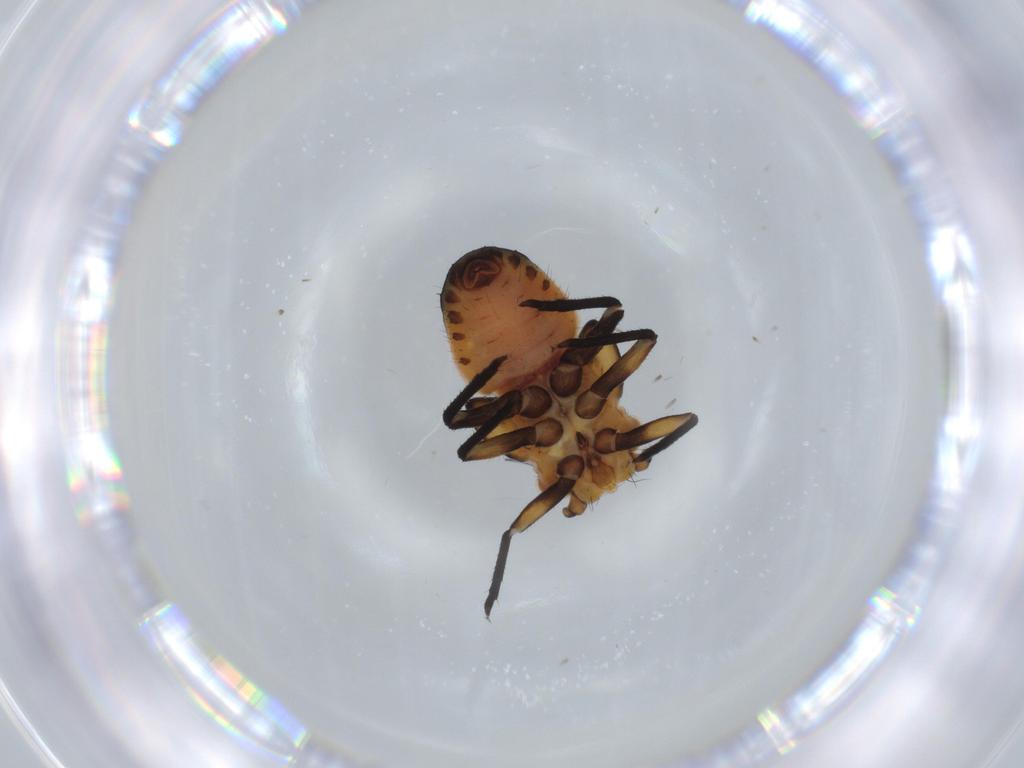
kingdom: Animalia
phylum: Arthropoda
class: Insecta
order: Hemiptera
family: Psyllidae
